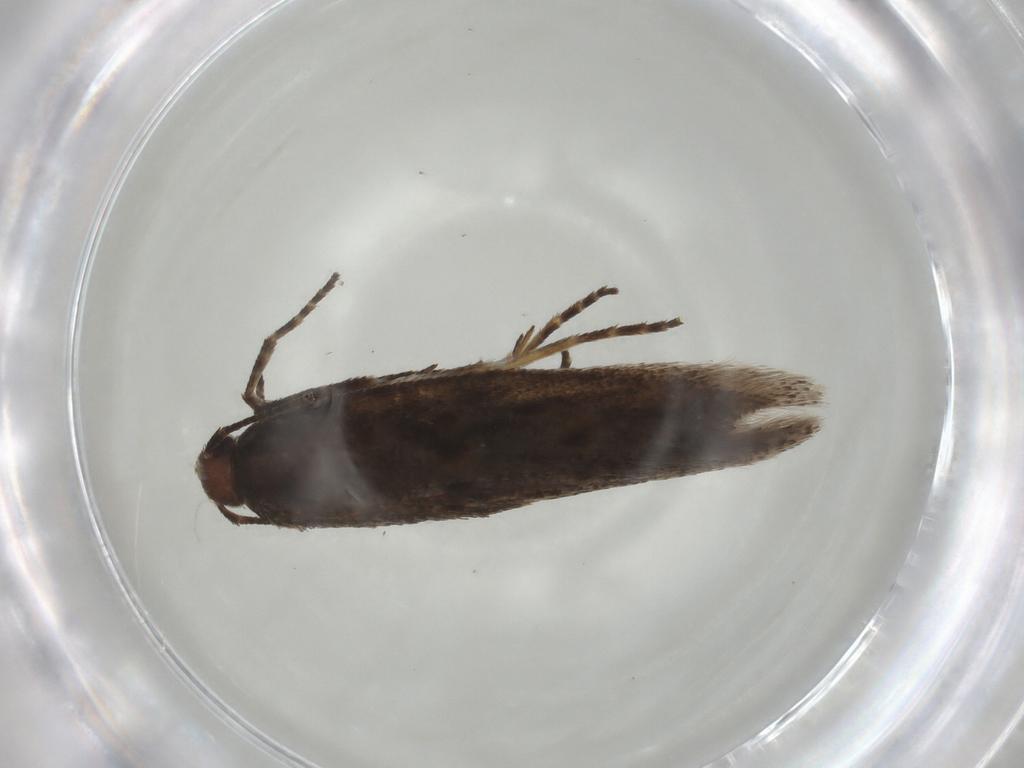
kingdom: Animalia
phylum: Arthropoda
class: Insecta
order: Lepidoptera
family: Gelechiidae
